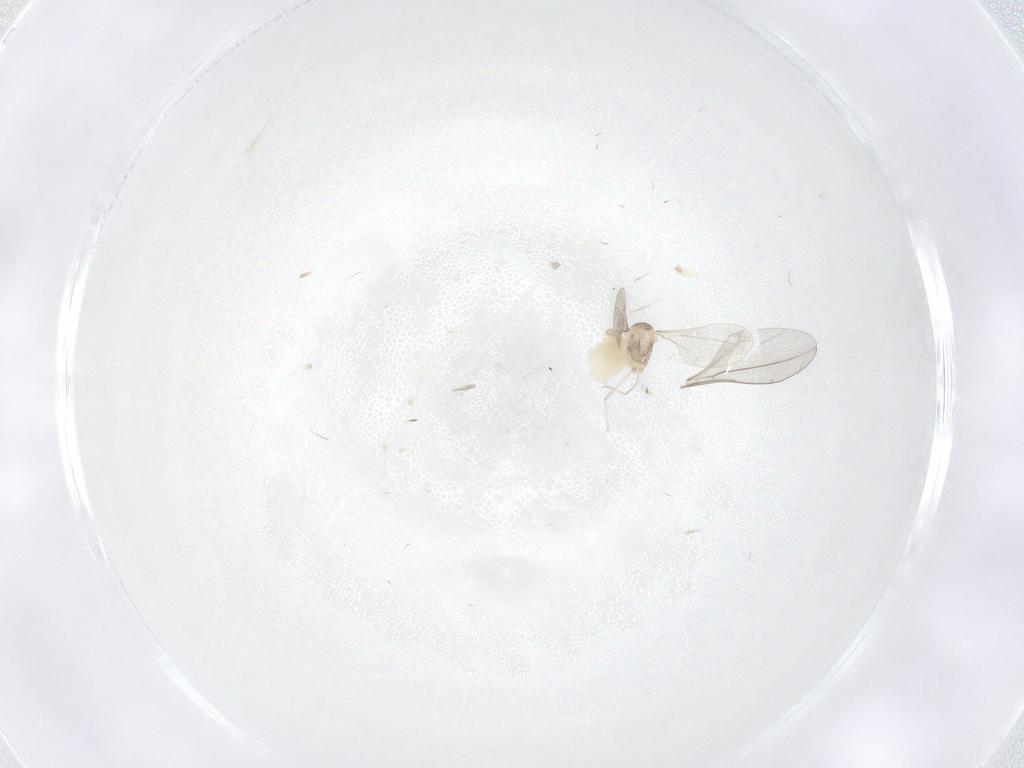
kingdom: Animalia
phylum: Arthropoda
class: Insecta
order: Diptera
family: Cecidomyiidae
